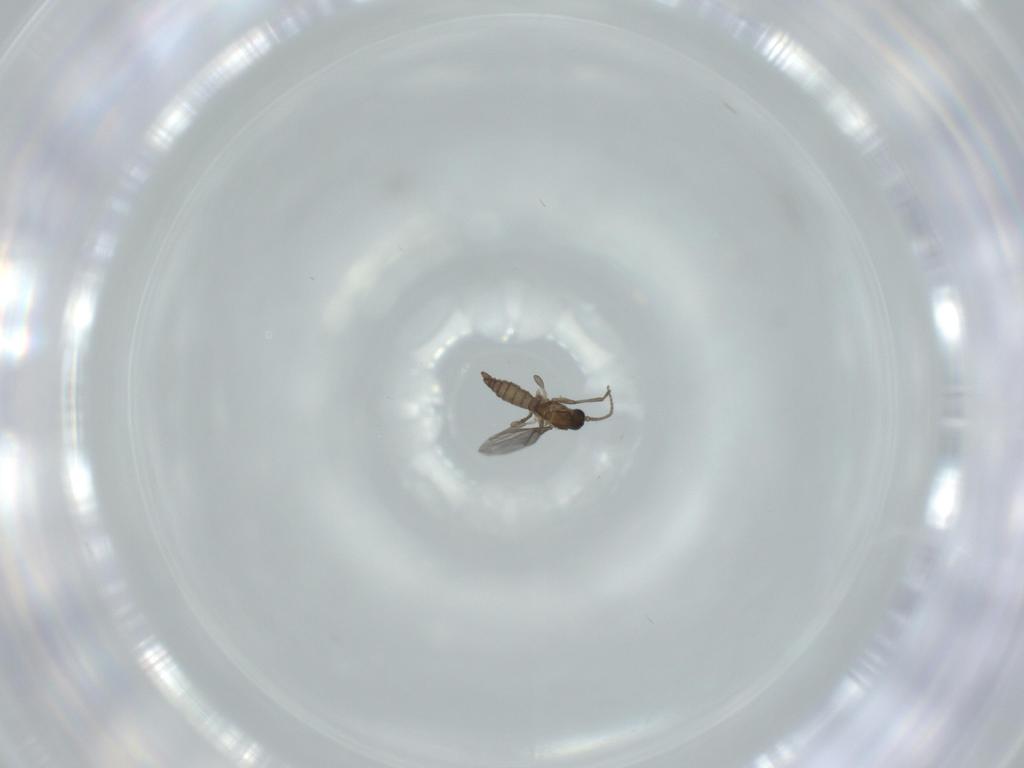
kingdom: Animalia
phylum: Arthropoda
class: Insecta
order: Diptera
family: Sciaridae
